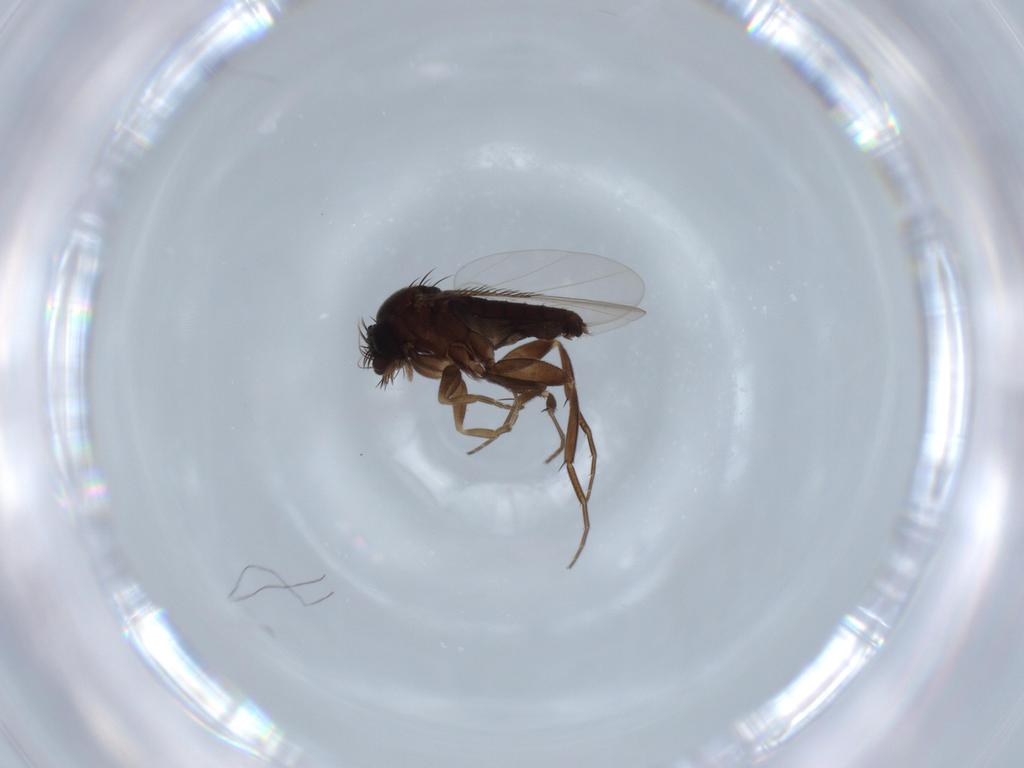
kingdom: Animalia
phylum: Arthropoda
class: Insecta
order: Diptera
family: Phoridae
